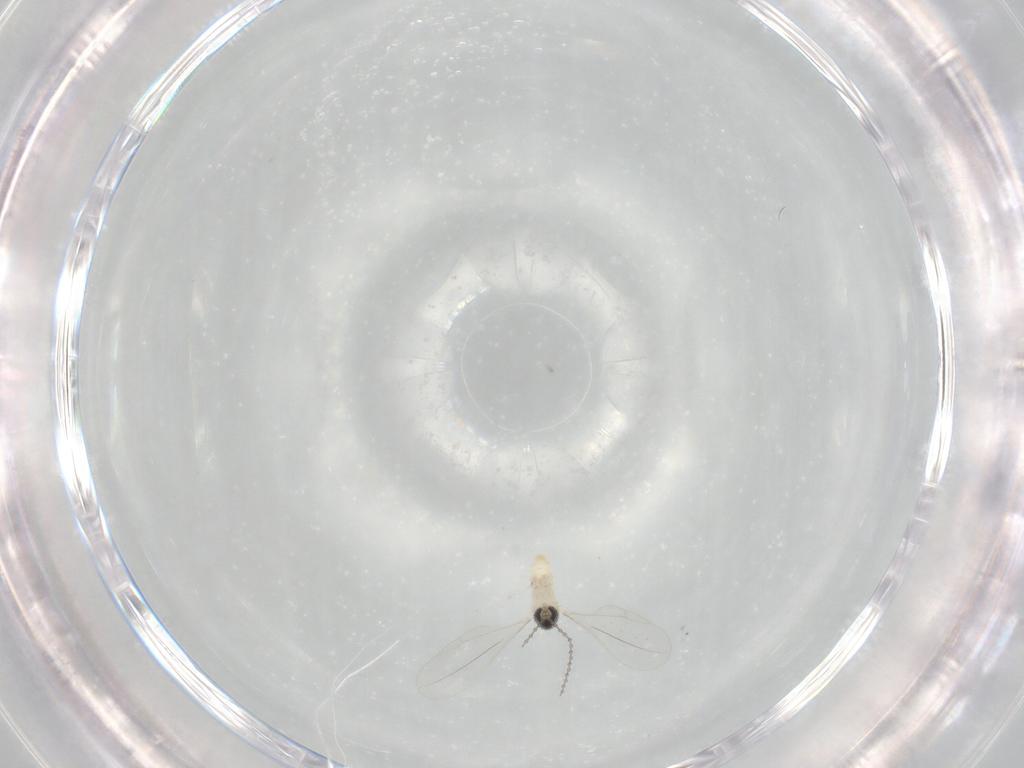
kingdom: Animalia
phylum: Arthropoda
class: Insecta
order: Diptera
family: Cecidomyiidae
